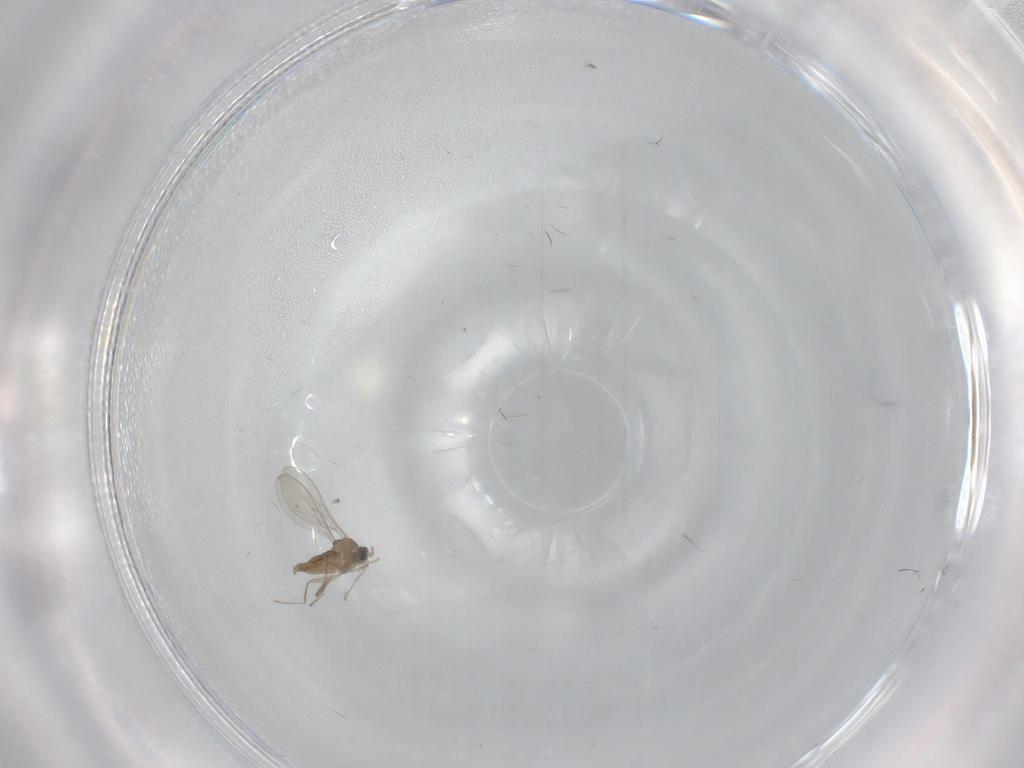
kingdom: Animalia
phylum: Arthropoda
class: Insecta
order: Diptera
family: Cecidomyiidae
